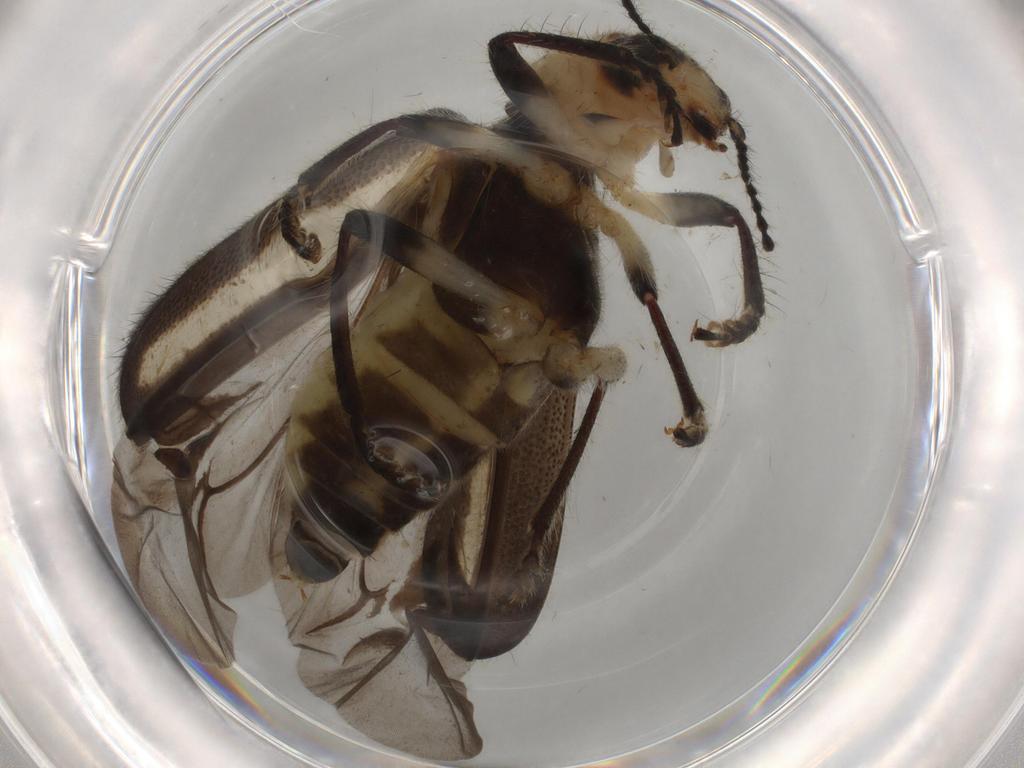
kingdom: Animalia
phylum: Arthropoda
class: Insecta
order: Coleoptera
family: Cleridae
